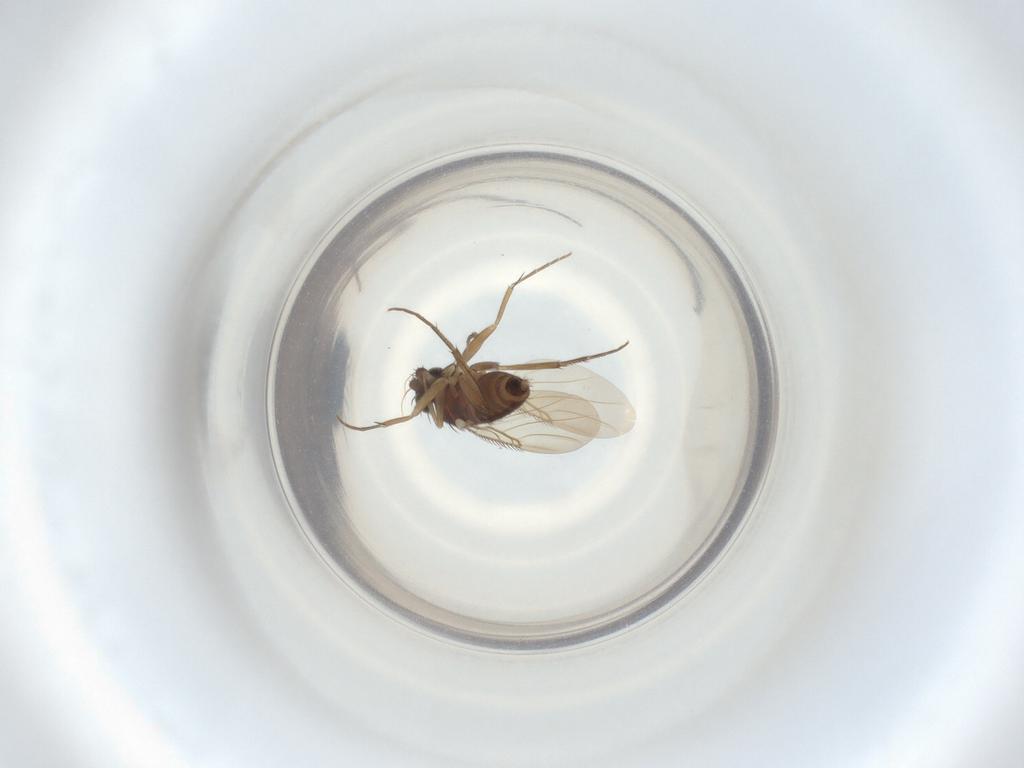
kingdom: Animalia
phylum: Arthropoda
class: Insecta
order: Diptera
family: Phoridae
